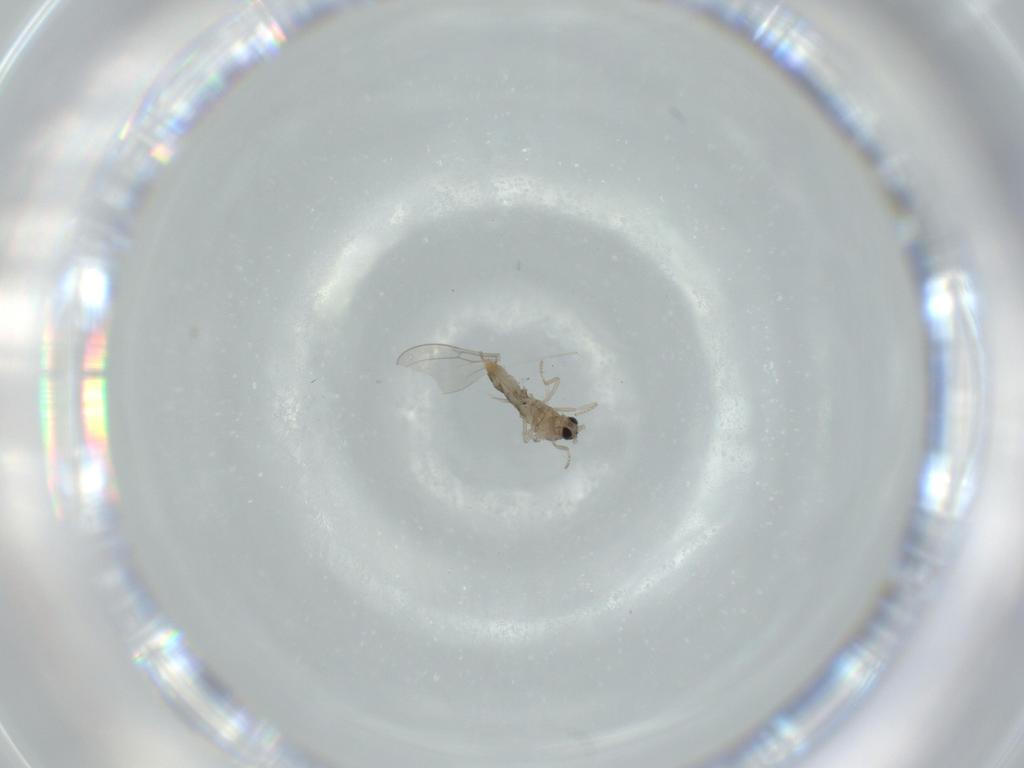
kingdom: Animalia
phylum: Arthropoda
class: Insecta
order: Diptera
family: Cecidomyiidae
